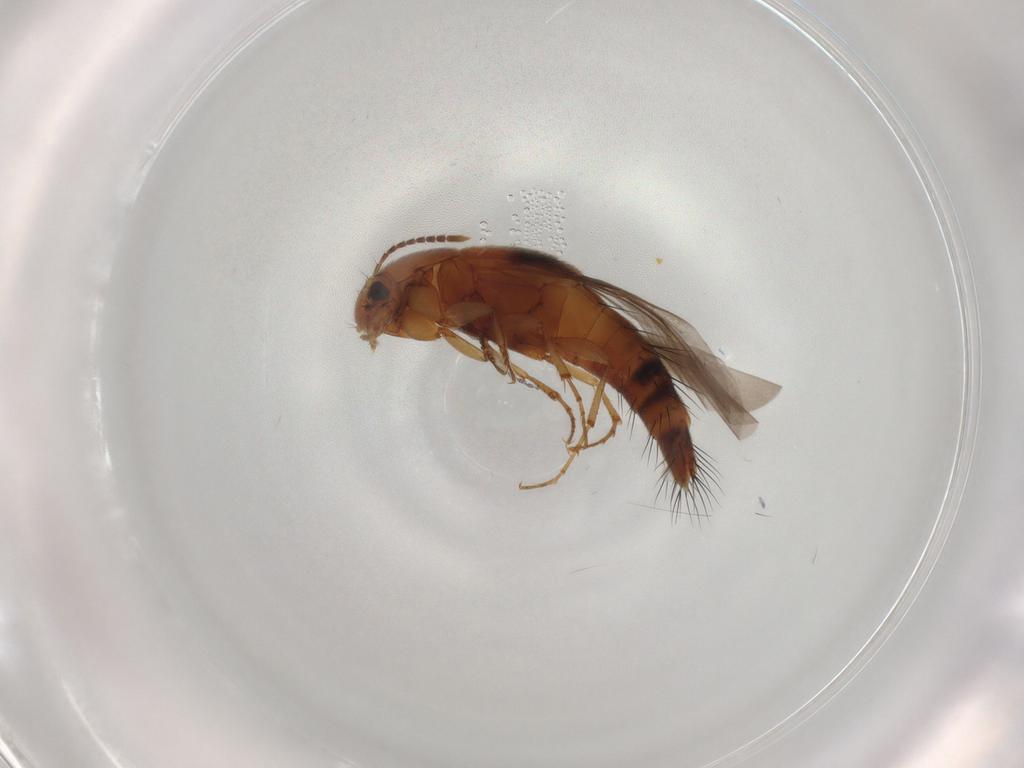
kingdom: Animalia
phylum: Arthropoda
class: Insecta
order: Coleoptera
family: Staphylinidae
